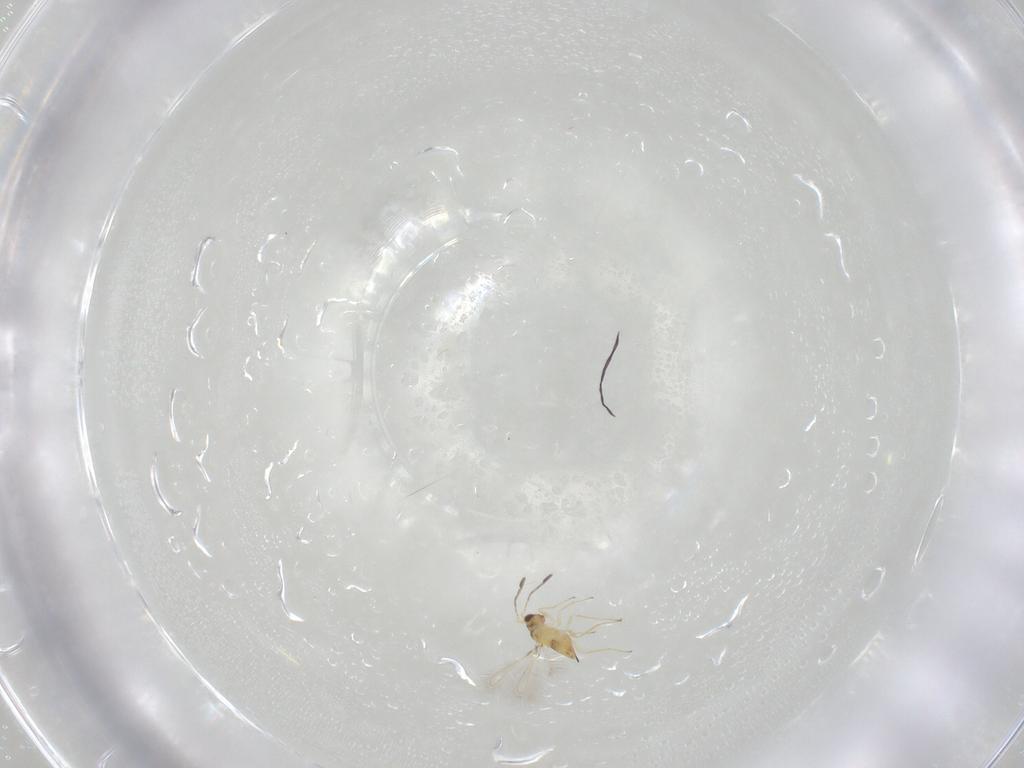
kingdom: Animalia
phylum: Arthropoda
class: Insecta
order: Hymenoptera
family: Mymaridae
